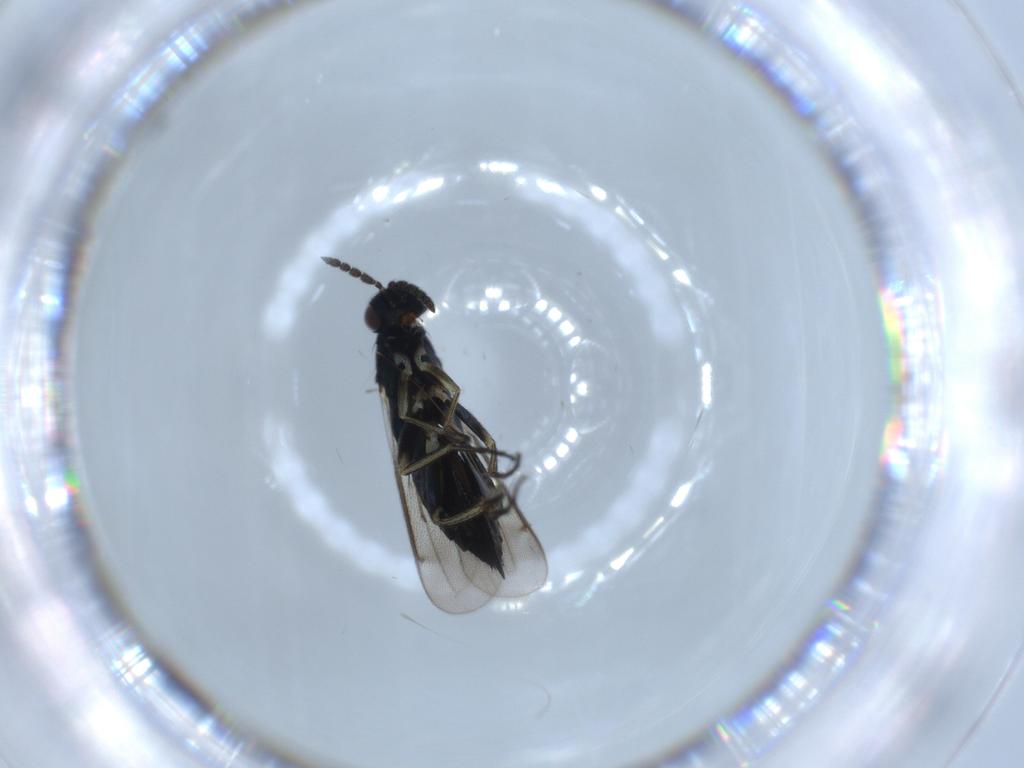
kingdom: Animalia
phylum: Arthropoda
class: Insecta
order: Hymenoptera
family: Eulophidae
